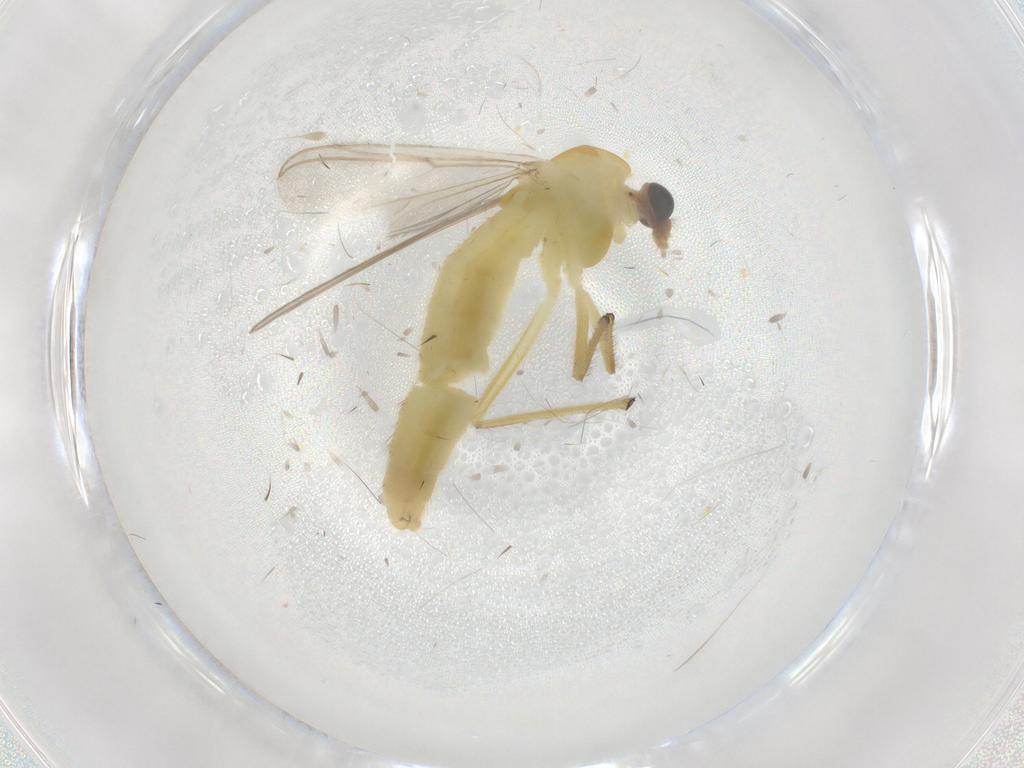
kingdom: Animalia
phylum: Arthropoda
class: Insecta
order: Diptera
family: Chironomidae
